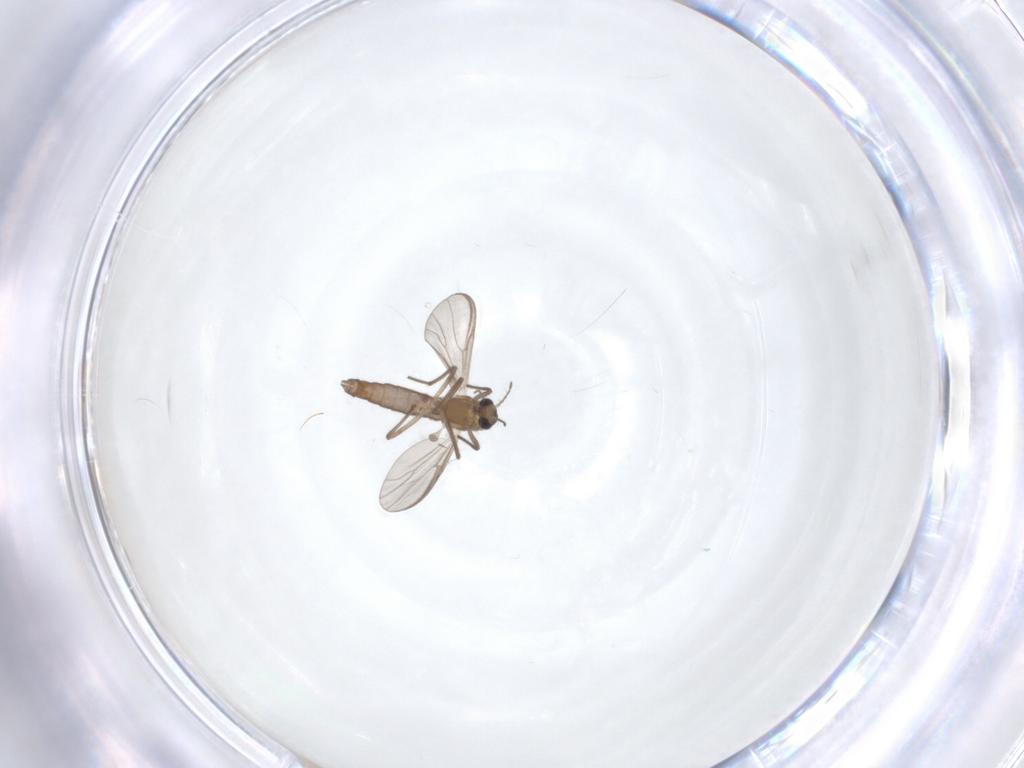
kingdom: Animalia
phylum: Arthropoda
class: Insecta
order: Diptera
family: Ceratopogonidae
